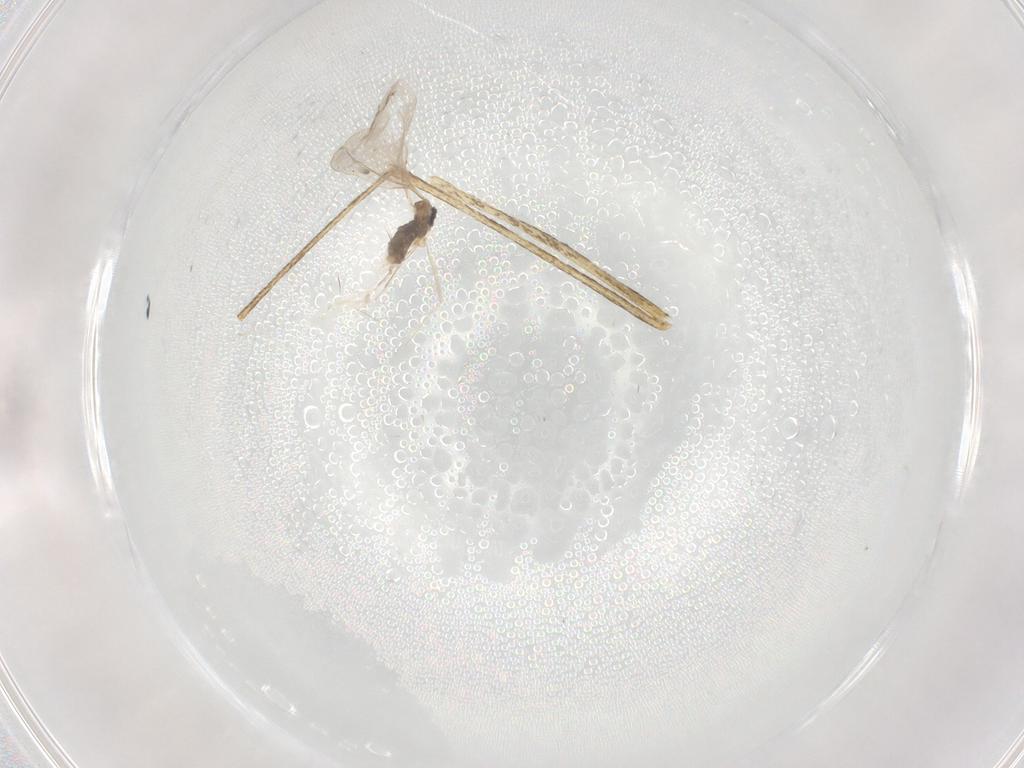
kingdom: Animalia
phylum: Arthropoda
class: Insecta
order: Diptera
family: Culicidae
